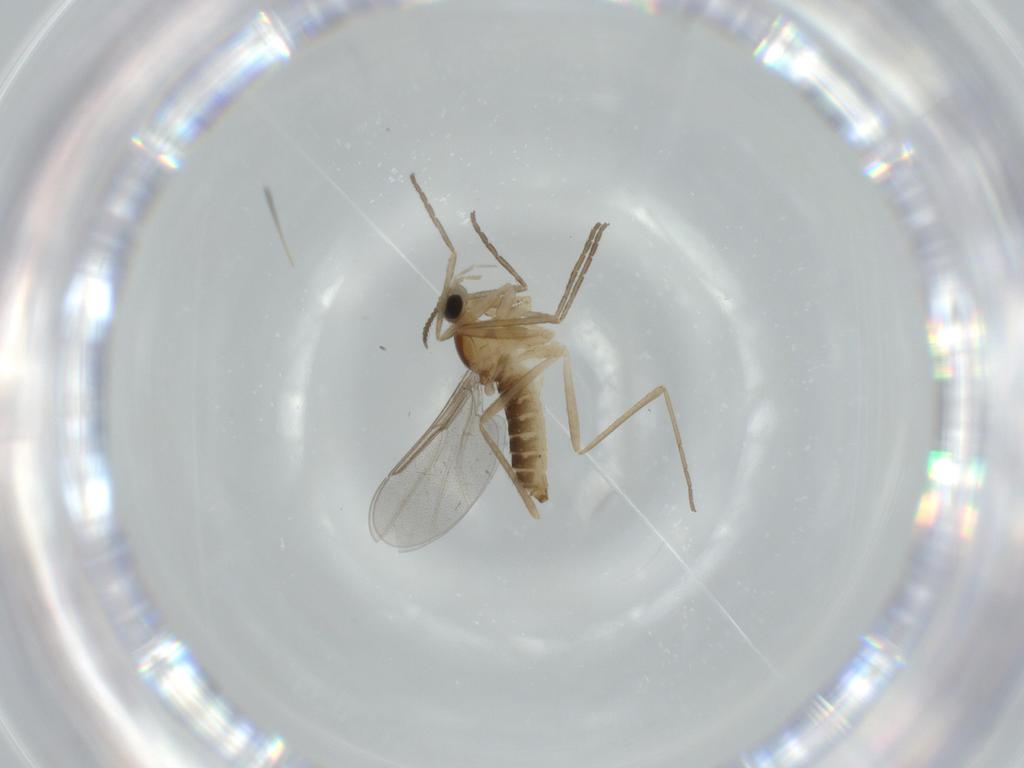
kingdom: Animalia
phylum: Arthropoda
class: Insecta
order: Diptera
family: Cecidomyiidae
